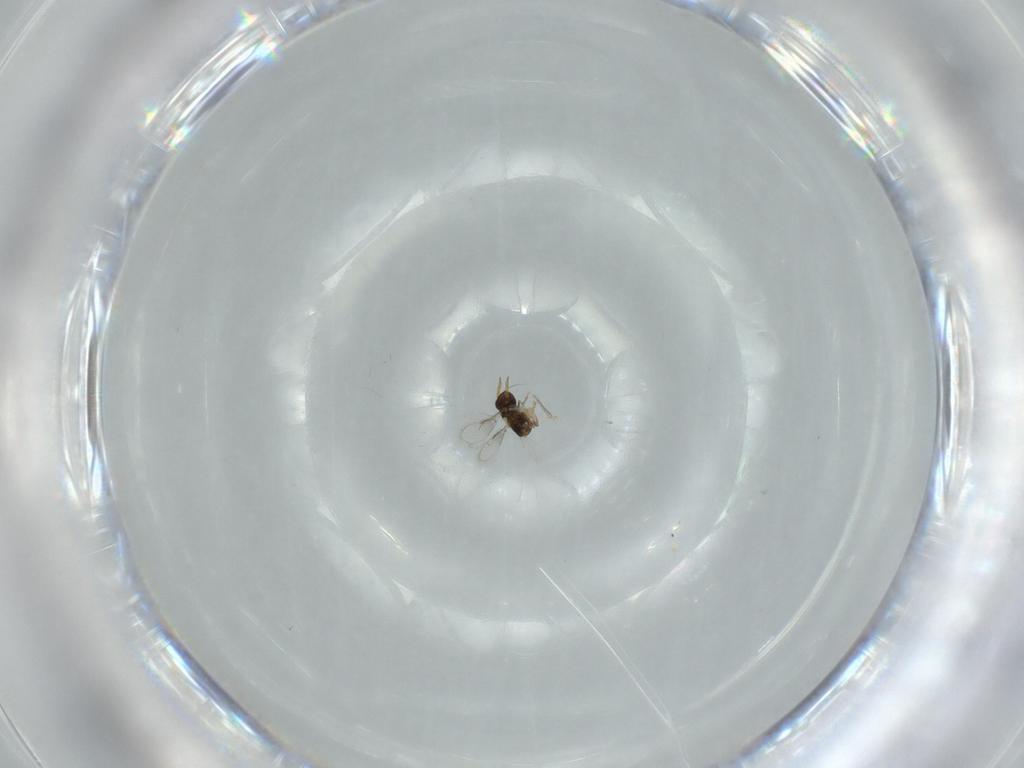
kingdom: Animalia
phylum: Arthropoda
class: Insecta
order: Hymenoptera
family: Aphelinidae
